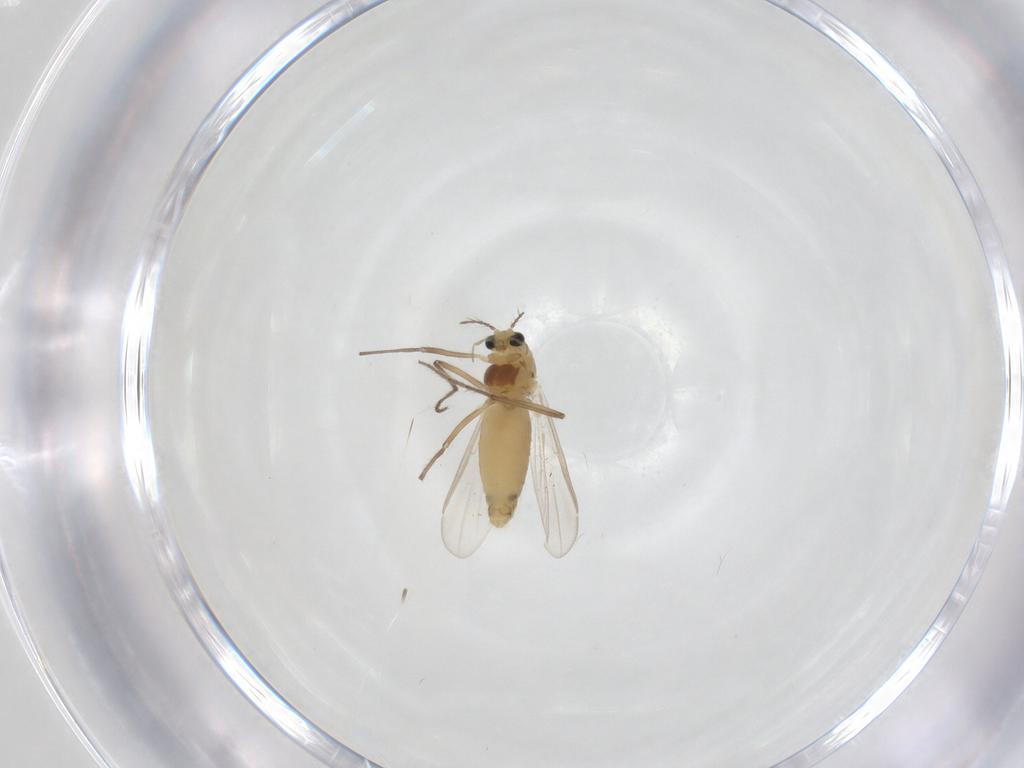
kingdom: Animalia
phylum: Arthropoda
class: Insecta
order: Diptera
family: Chironomidae
